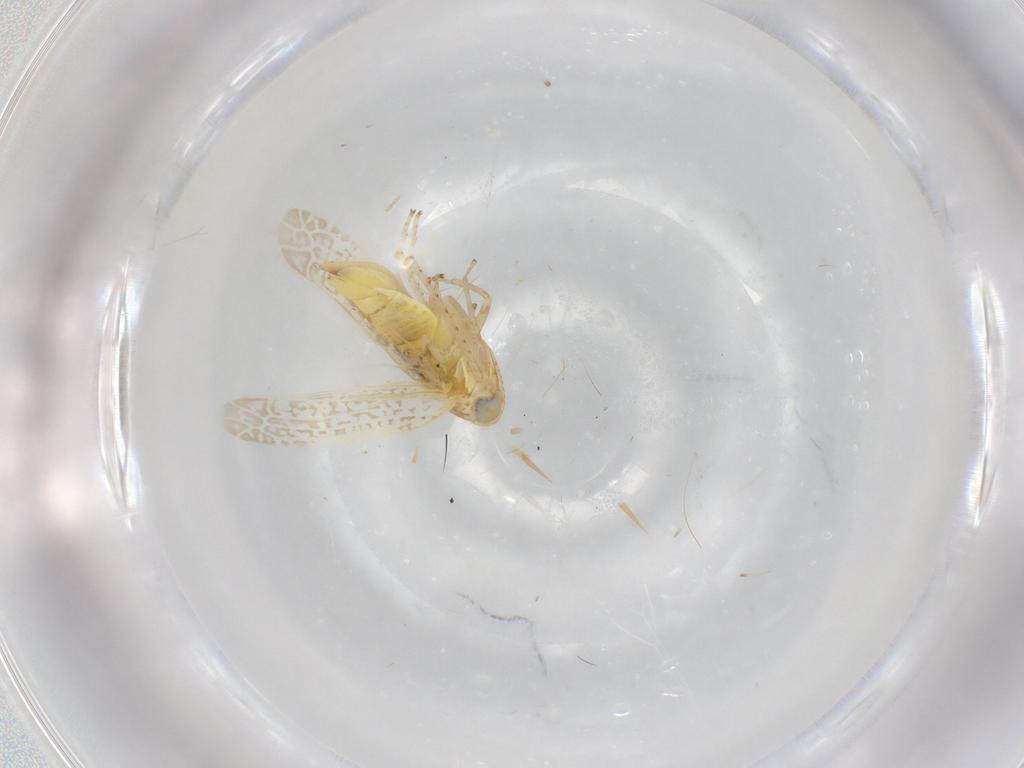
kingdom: Animalia
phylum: Arthropoda
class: Insecta
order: Hemiptera
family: Cicadellidae
